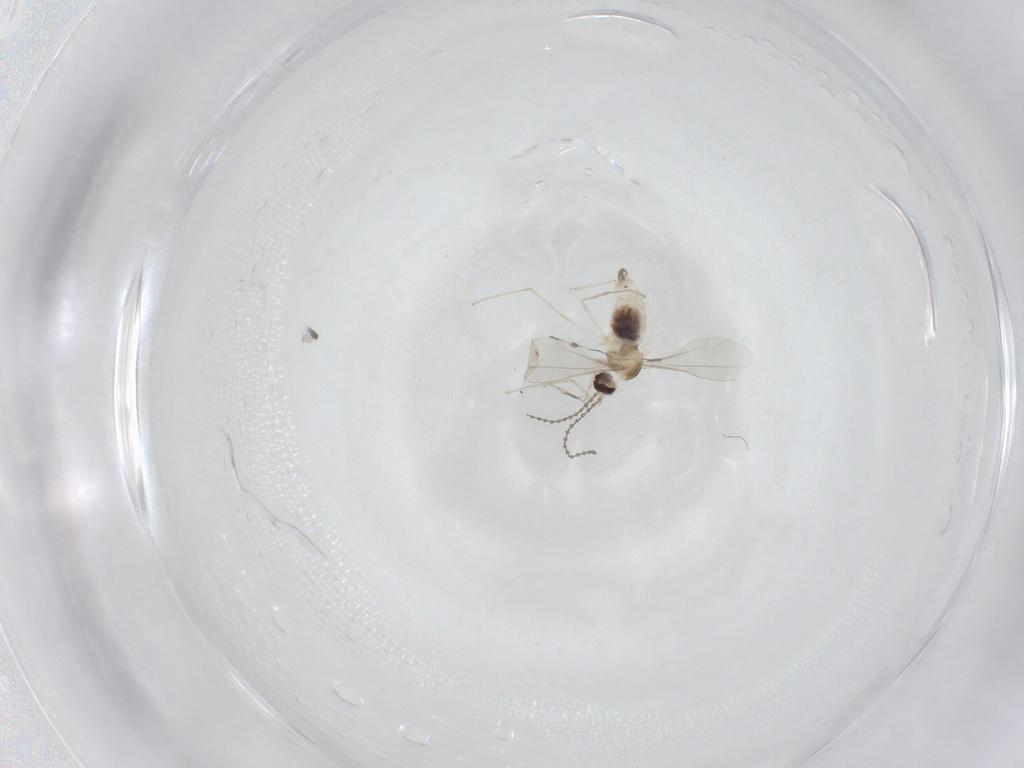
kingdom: Animalia
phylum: Arthropoda
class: Insecta
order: Diptera
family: Cecidomyiidae
